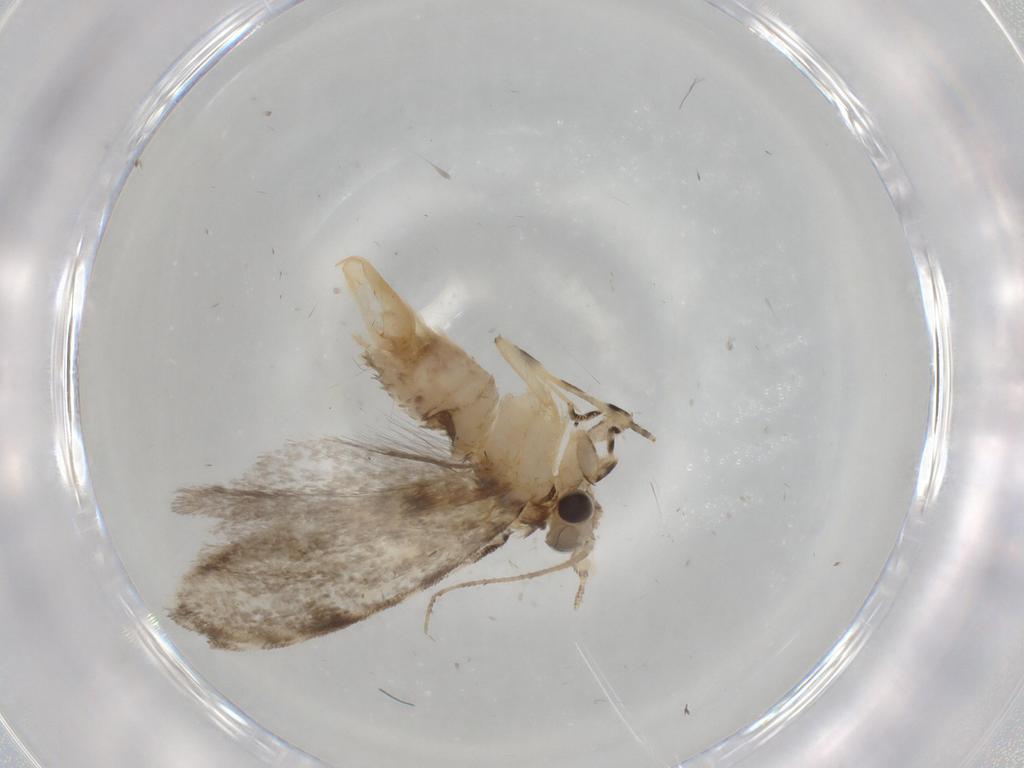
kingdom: Animalia
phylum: Arthropoda
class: Insecta
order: Lepidoptera
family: Tineidae
